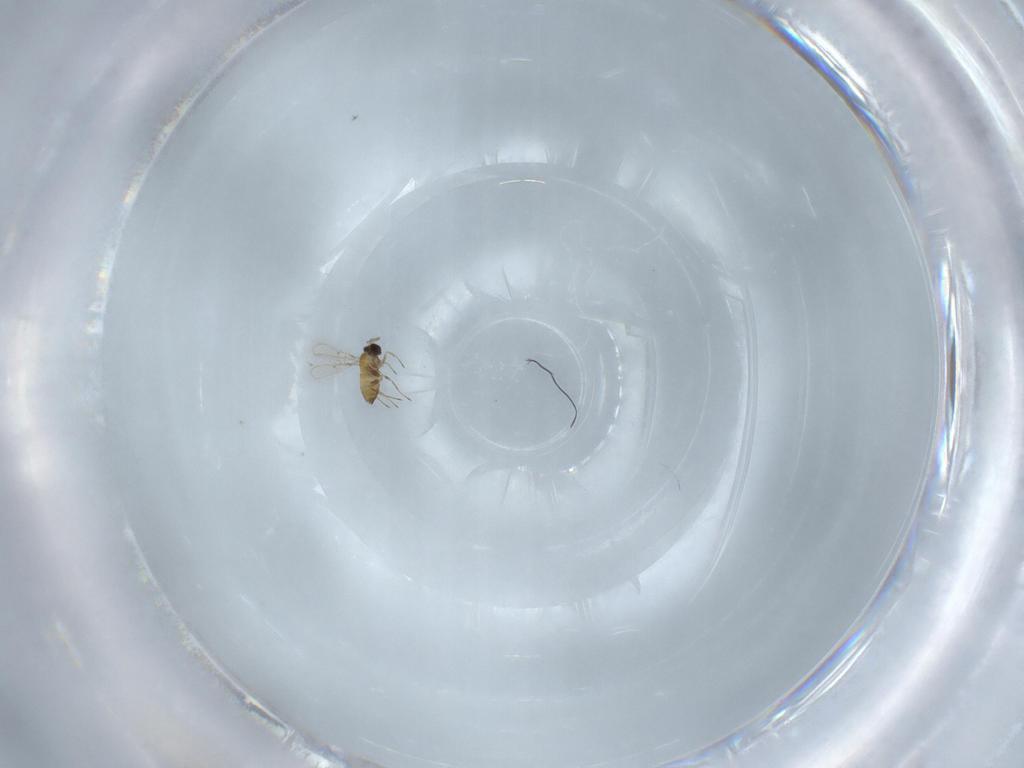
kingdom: Animalia
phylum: Arthropoda
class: Insecta
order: Hymenoptera
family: Trichogrammatidae
